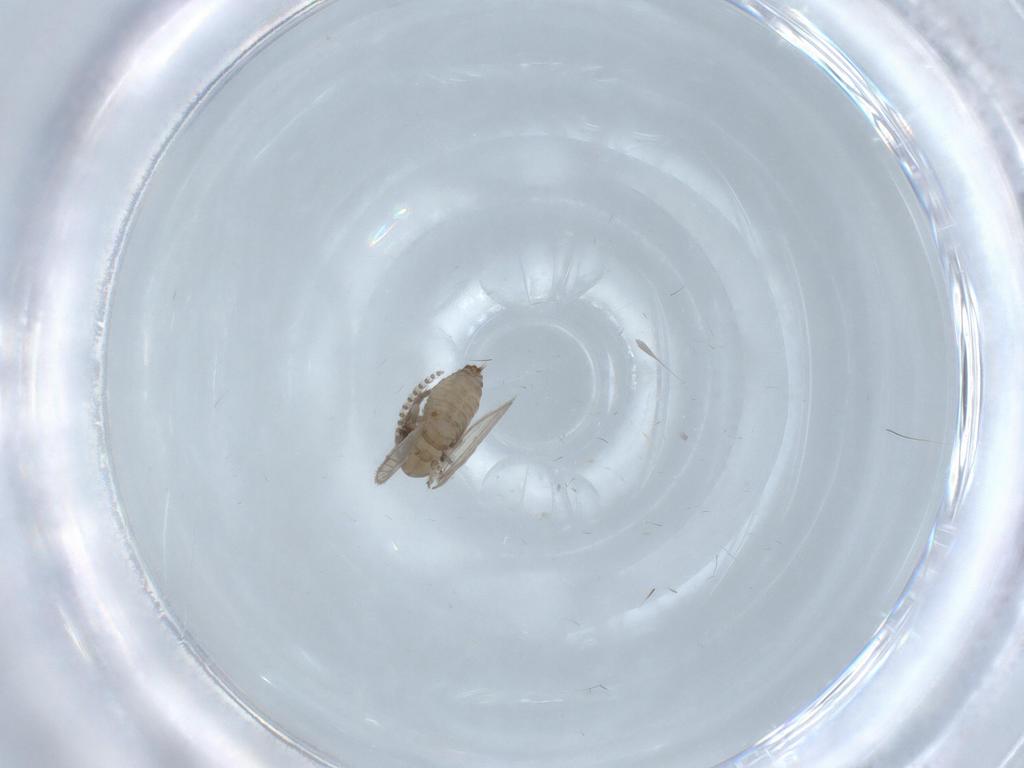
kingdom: Animalia
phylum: Arthropoda
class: Insecta
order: Diptera
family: Psychodidae
